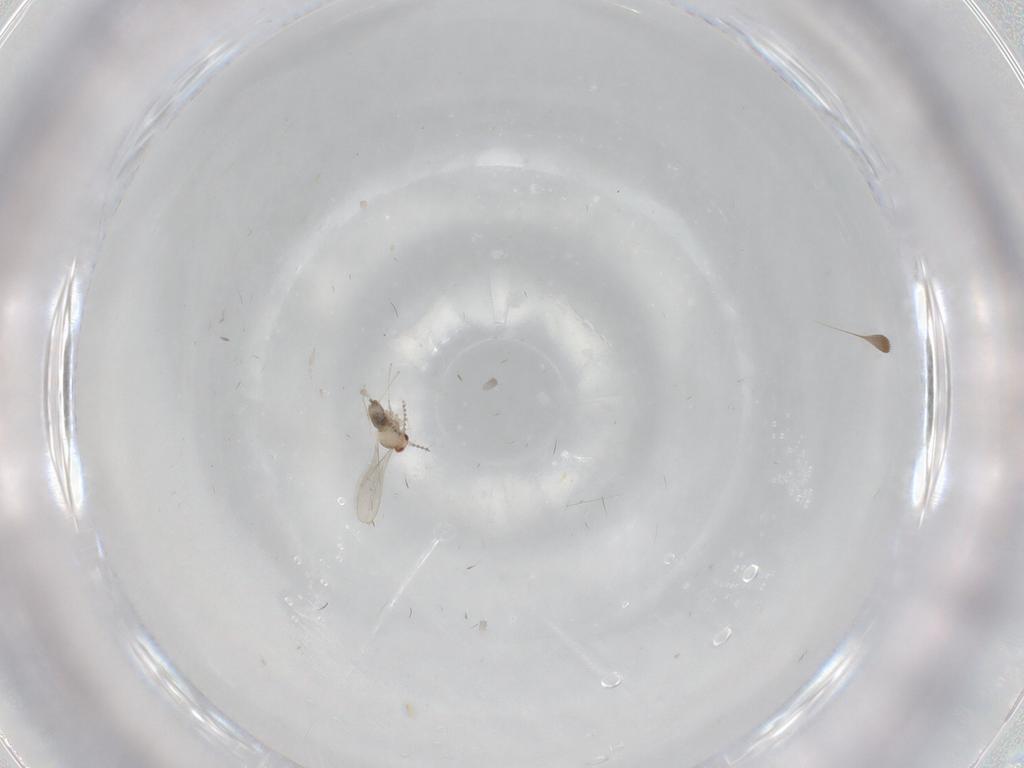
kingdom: Animalia
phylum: Arthropoda
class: Insecta
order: Diptera
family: Cecidomyiidae
